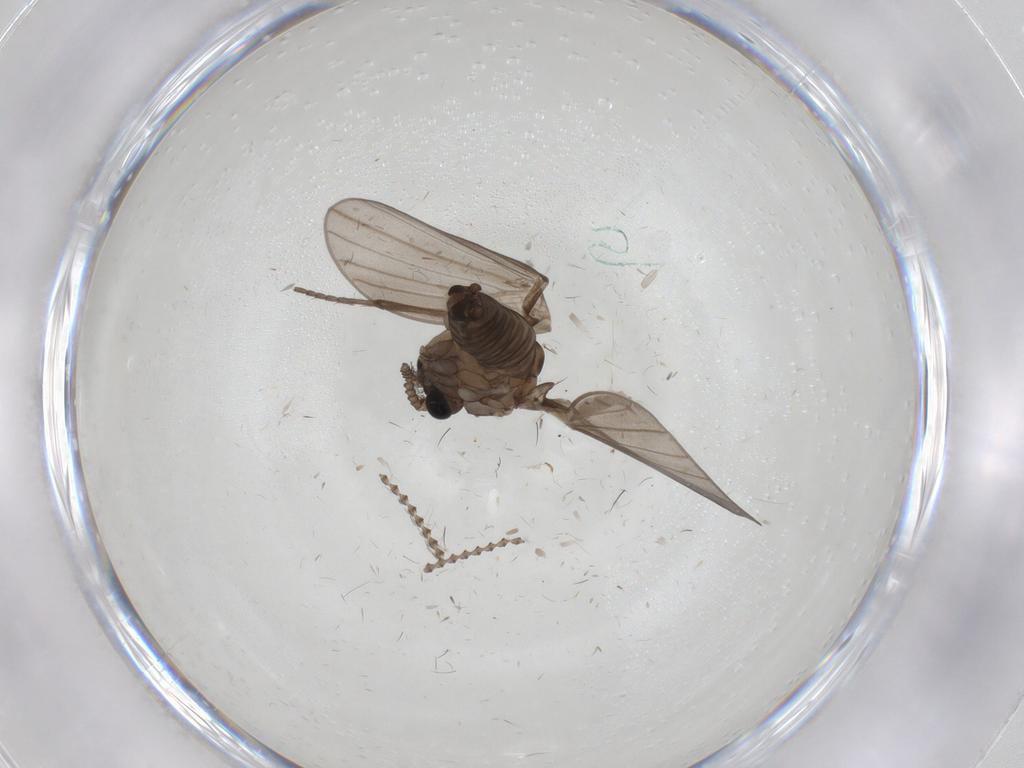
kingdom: Animalia
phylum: Arthropoda
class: Insecta
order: Diptera
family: Psychodidae
